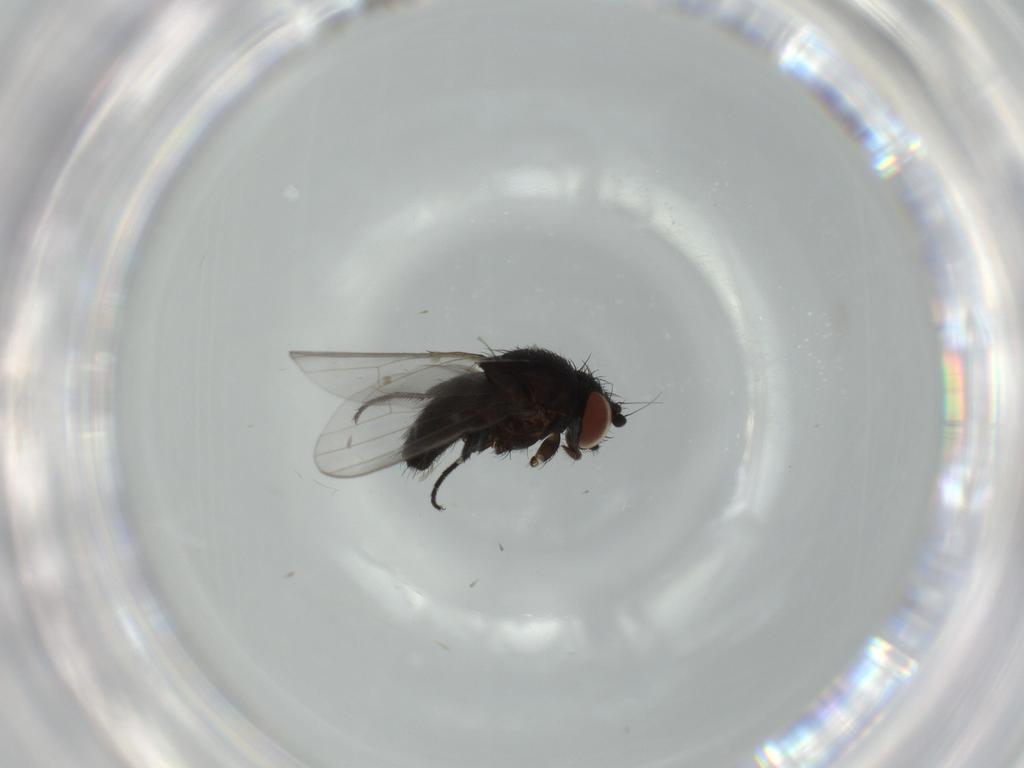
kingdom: Animalia
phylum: Arthropoda
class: Insecta
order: Diptera
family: Milichiidae
